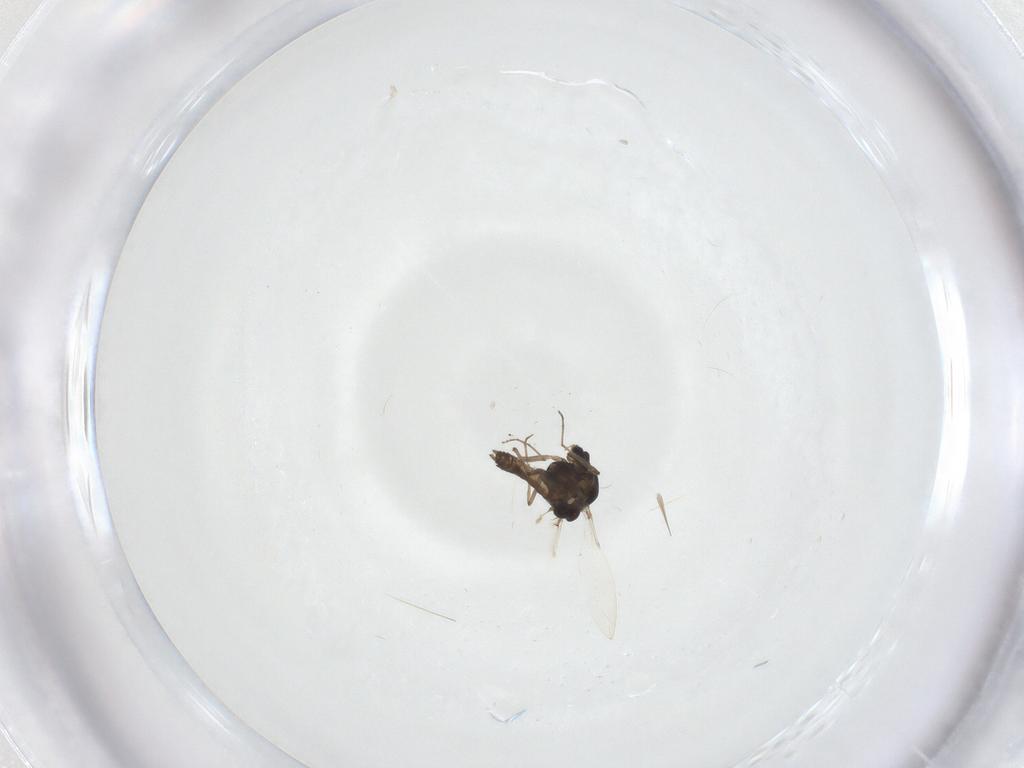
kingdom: Animalia
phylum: Arthropoda
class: Insecta
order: Diptera
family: Chironomidae
